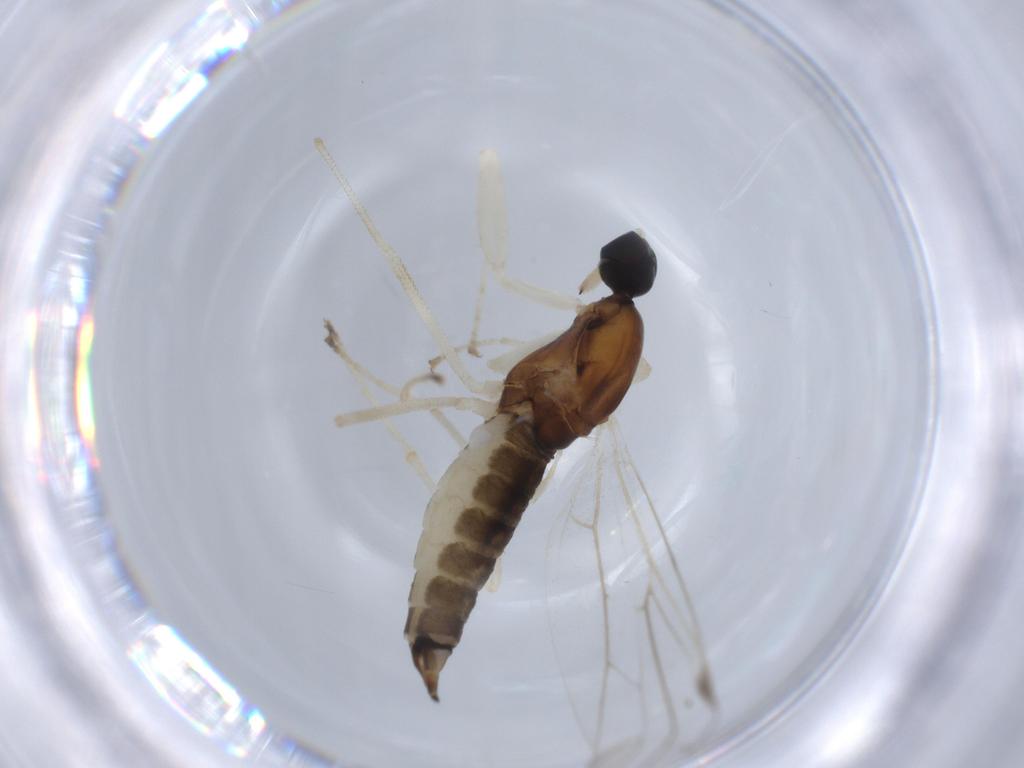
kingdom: Animalia
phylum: Arthropoda
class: Insecta
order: Diptera
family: Empididae
